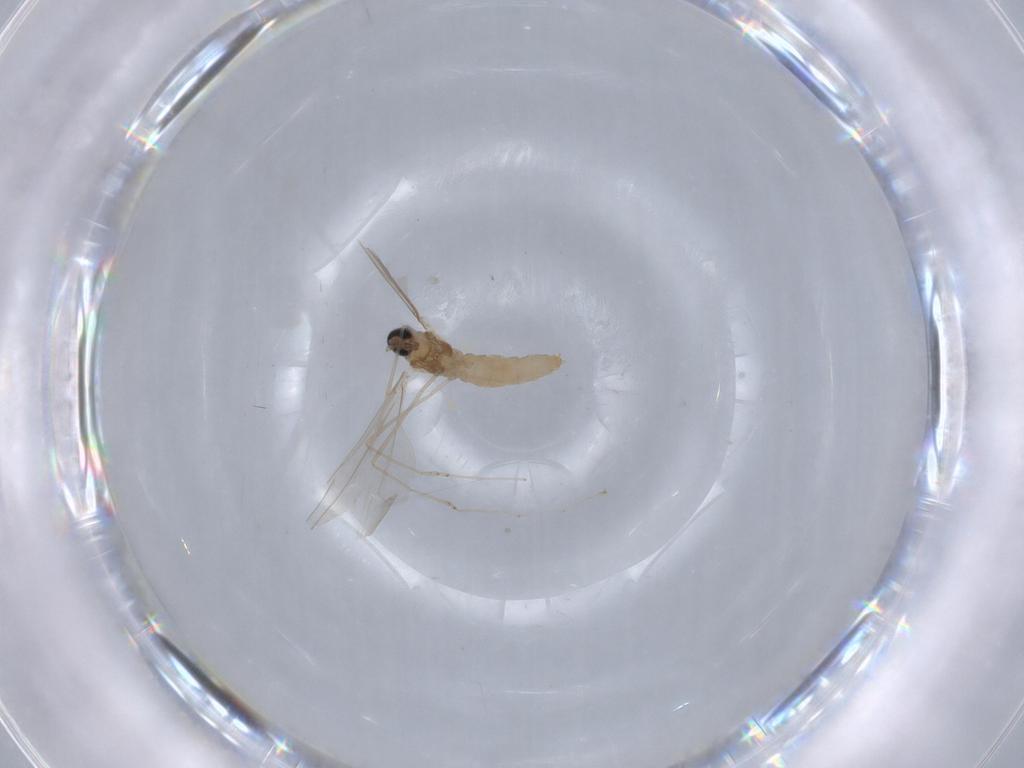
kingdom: Animalia
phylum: Arthropoda
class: Insecta
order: Diptera
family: Cecidomyiidae
